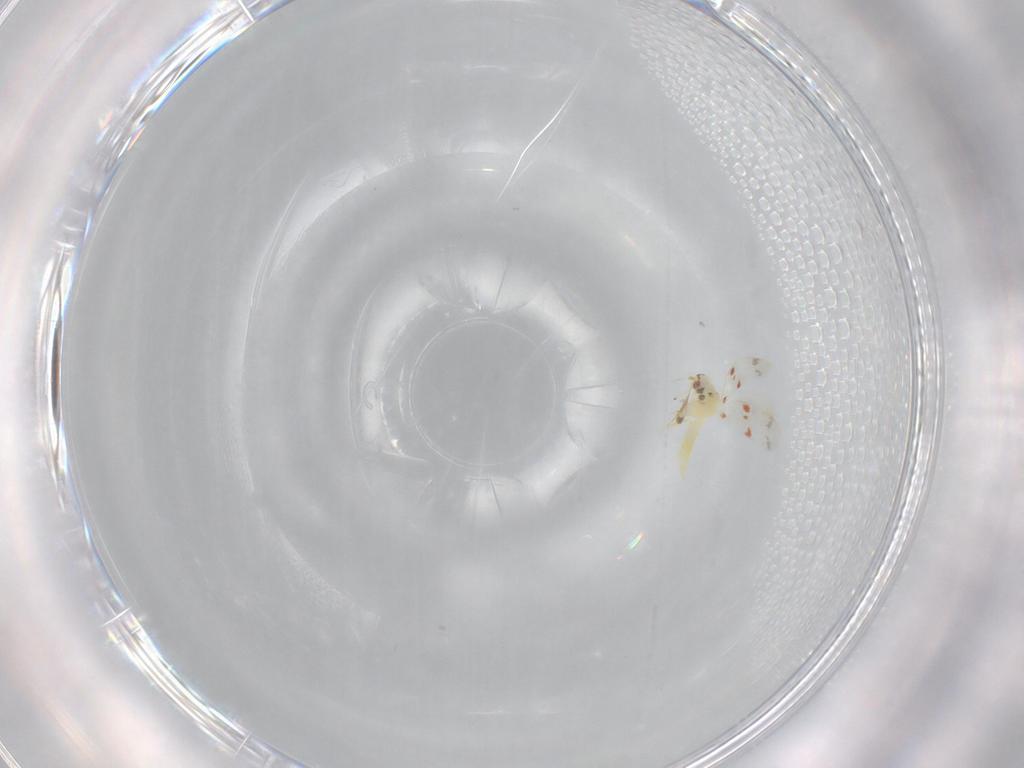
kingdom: Animalia
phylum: Arthropoda
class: Insecta
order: Hemiptera
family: Aleyrodidae
